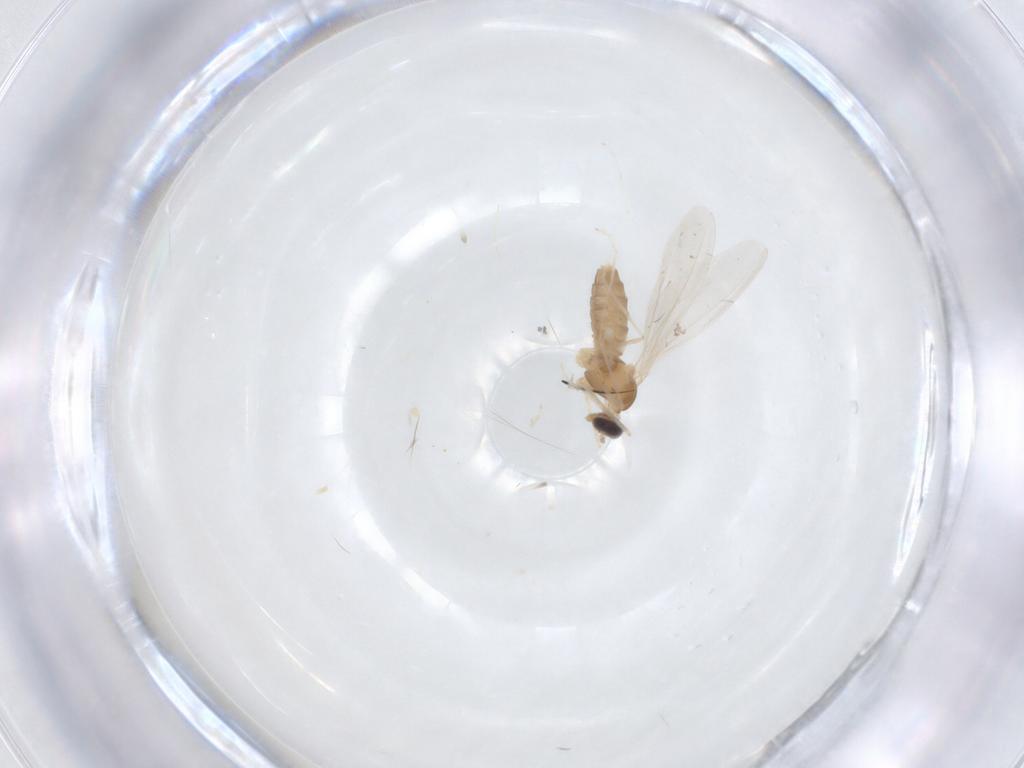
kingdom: Animalia
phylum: Arthropoda
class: Insecta
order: Diptera
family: Cecidomyiidae
